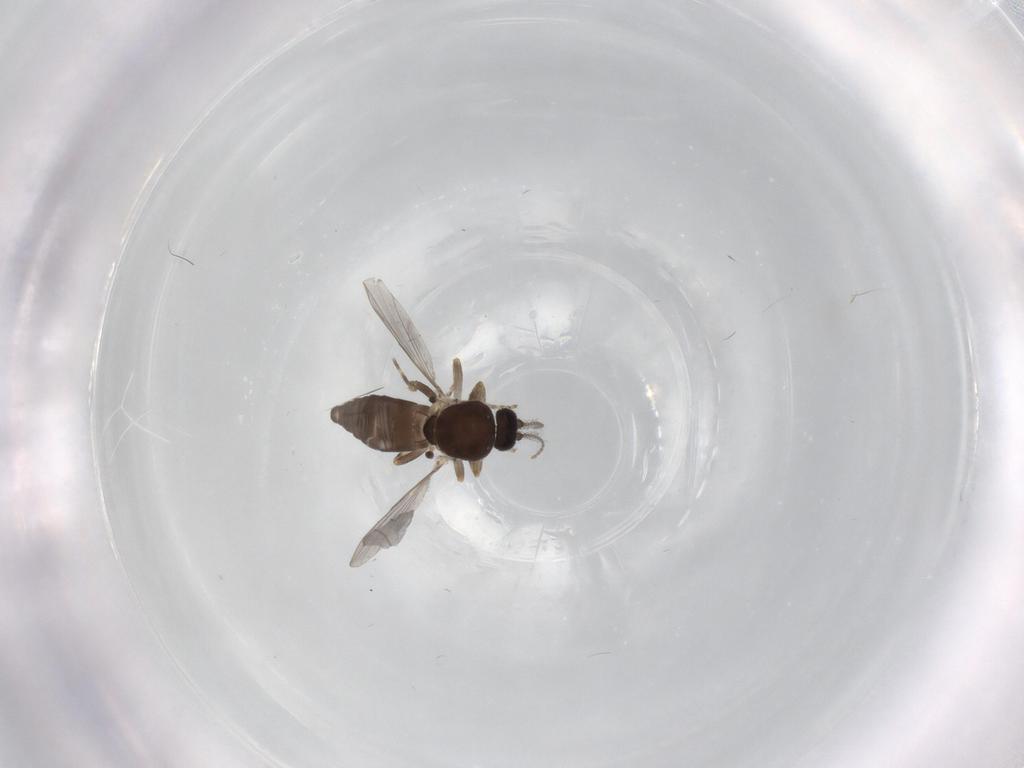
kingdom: Animalia
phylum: Arthropoda
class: Insecta
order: Diptera
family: Ceratopogonidae
